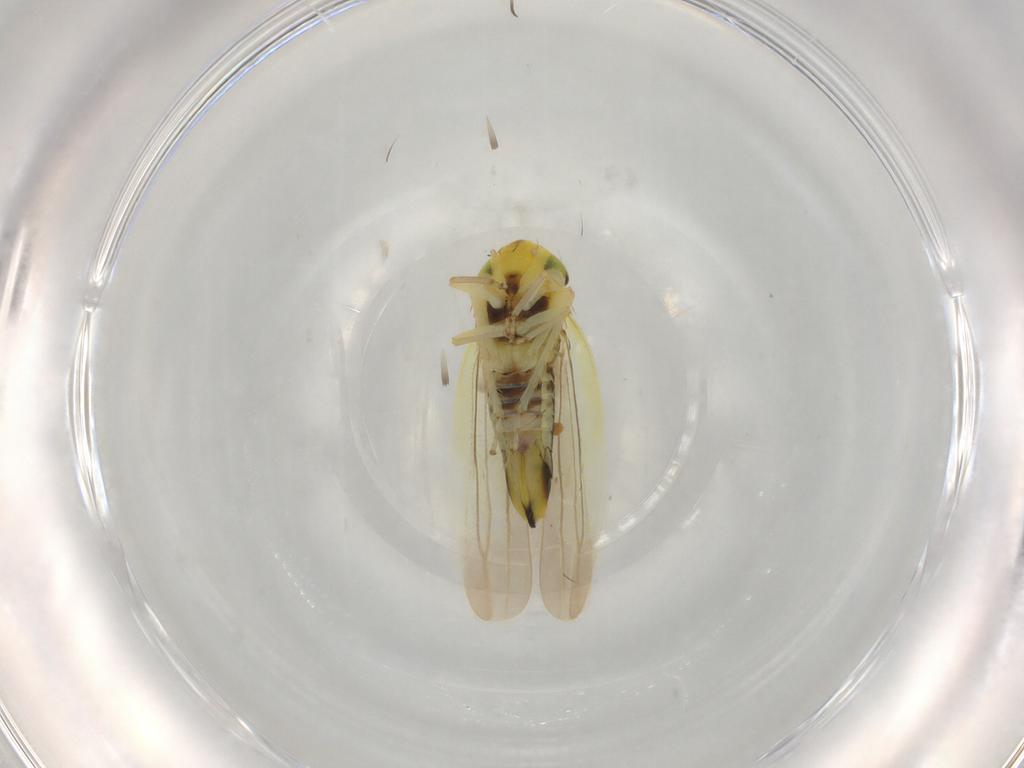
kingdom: Animalia
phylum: Arthropoda
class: Insecta
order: Hemiptera
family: Cicadellidae
